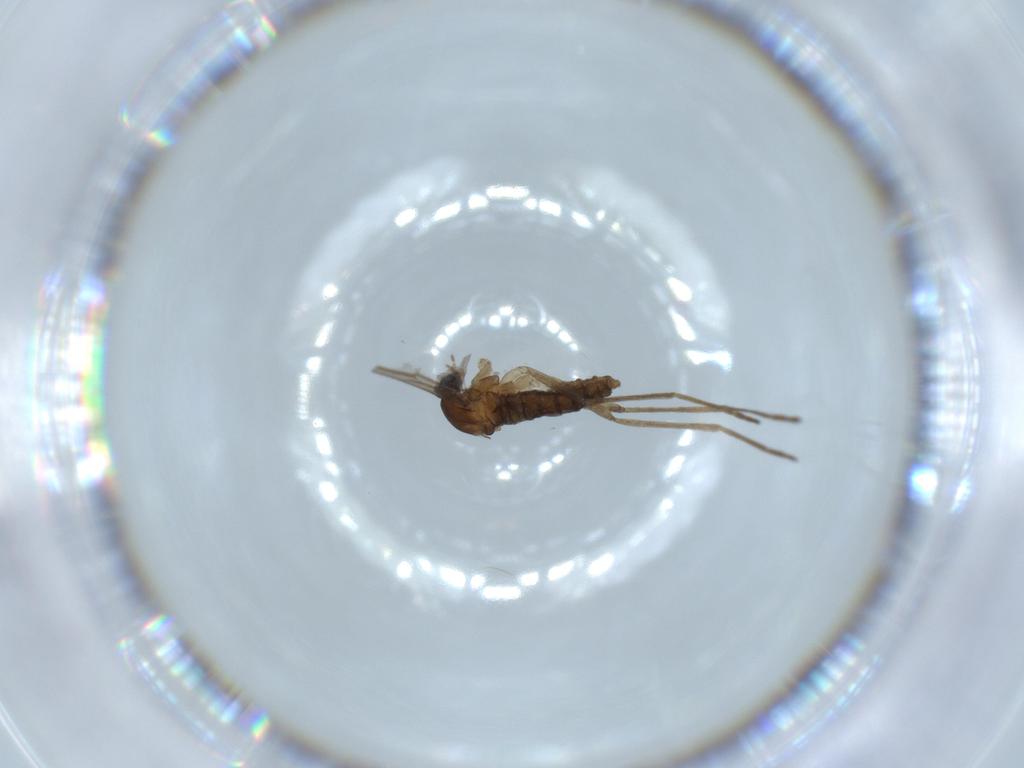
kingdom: Animalia
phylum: Arthropoda
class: Insecta
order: Diptera
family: Cecidomyiidae
